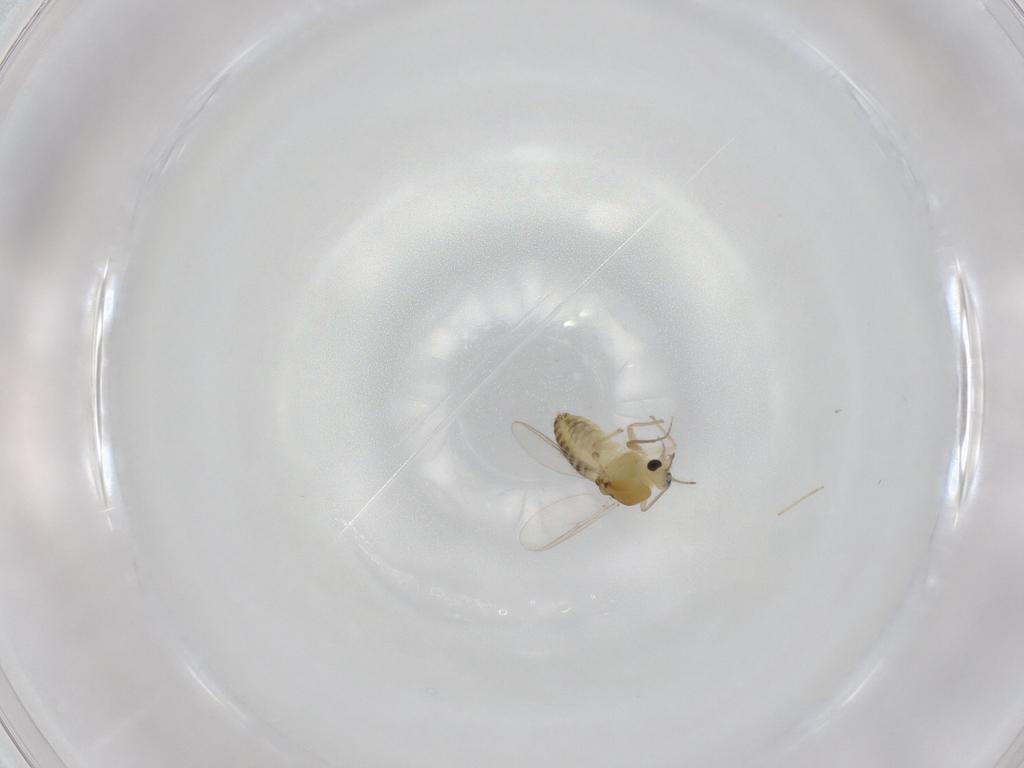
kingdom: Animalia
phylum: Arthropoda
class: Insecta
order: Diptera
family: Chironomidae
